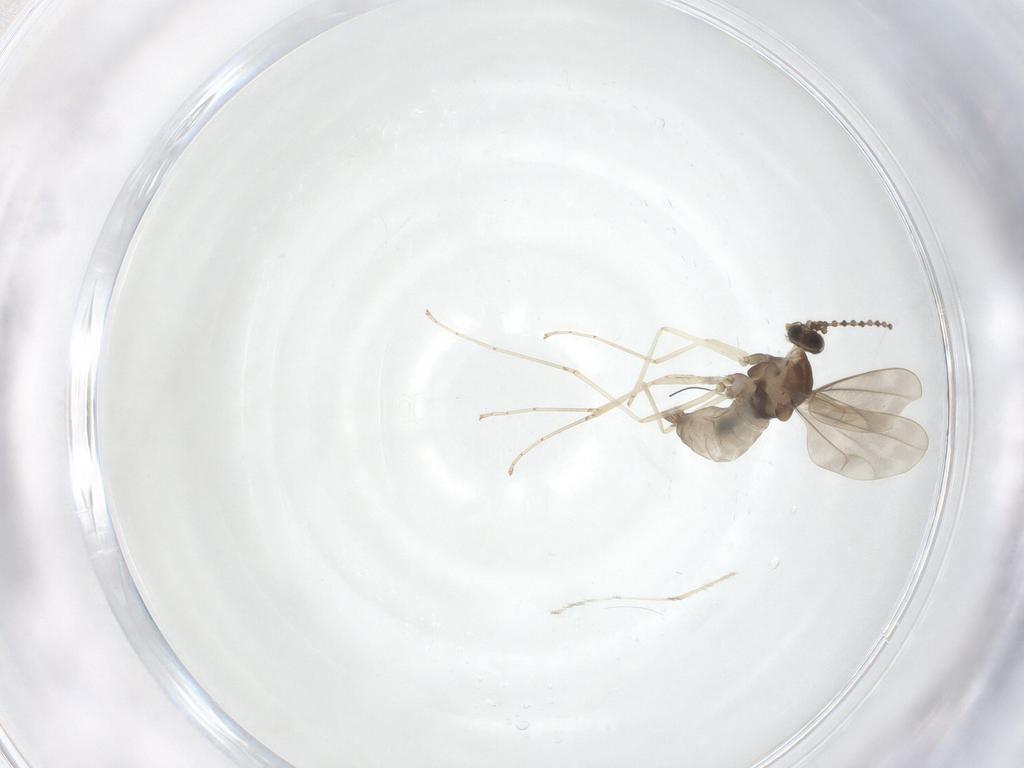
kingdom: Animalia
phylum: Arthropoda
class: Insecta
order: Diptera
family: Cecidomyiidae
